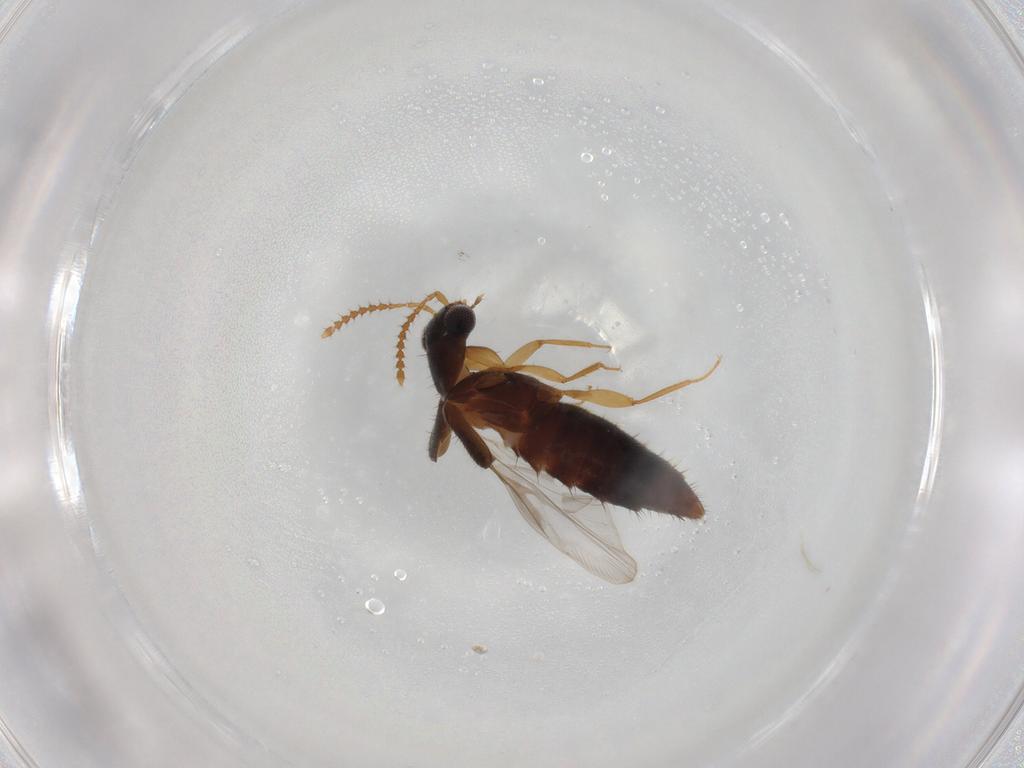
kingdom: Animalia
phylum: Arthropoda
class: Insecta
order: Coleoptera
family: Staphylinidae
